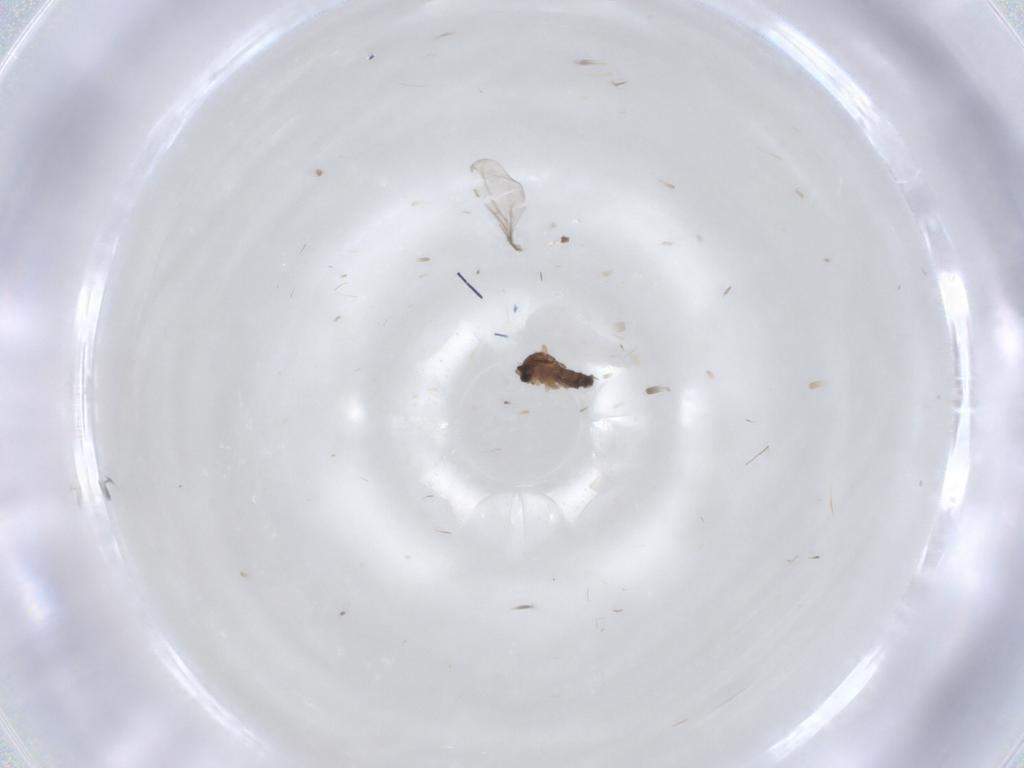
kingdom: Animalia
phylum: Arthropoda
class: Insecta
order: Diptera
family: Cecidomyiidae
